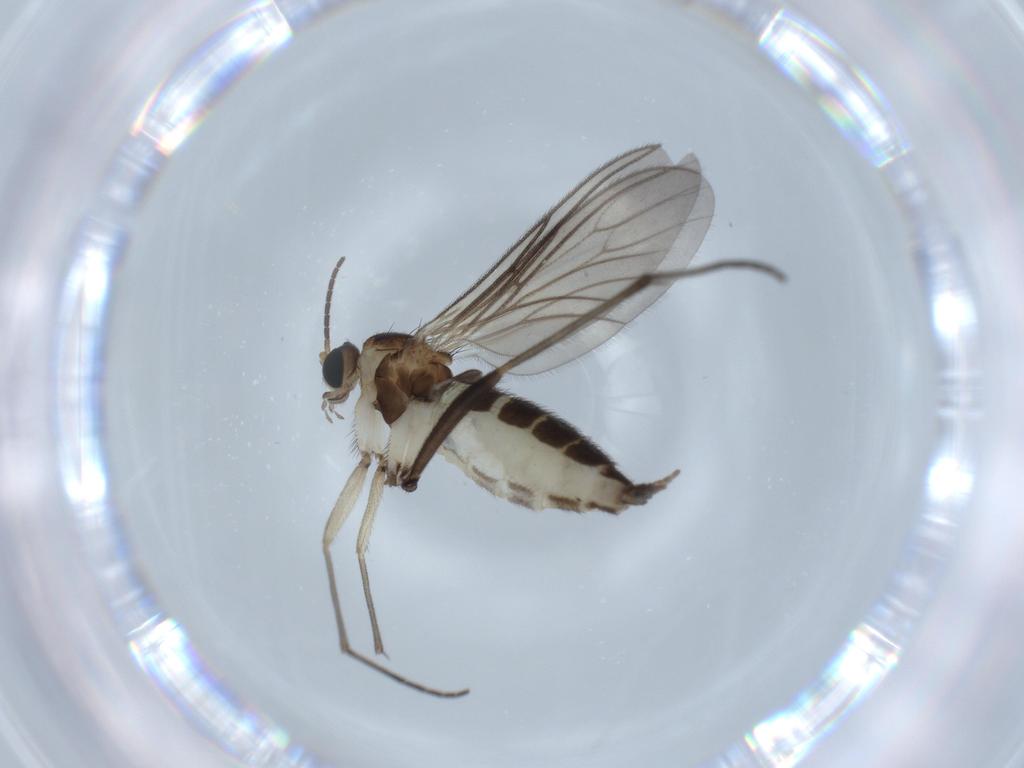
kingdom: Animalia
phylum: Arthropoda
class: Insecta
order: Diptera
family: Sciaridae
